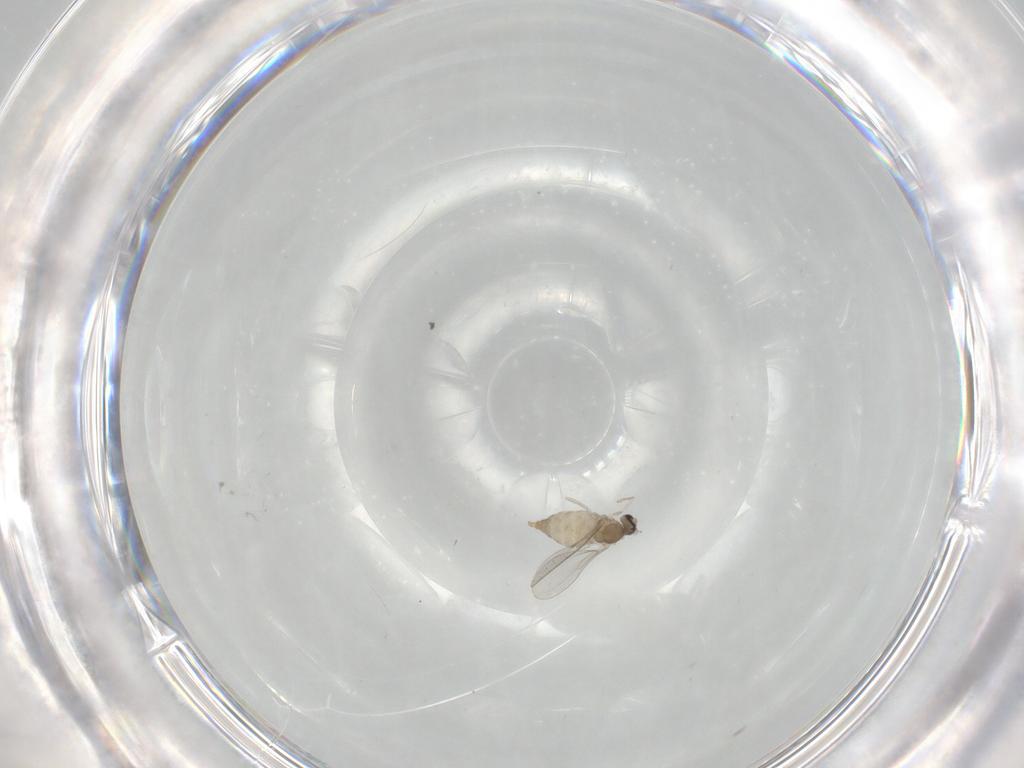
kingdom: Animalia
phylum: Arthropoda
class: Insecta
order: Diptera
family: Cecidomyiidae
